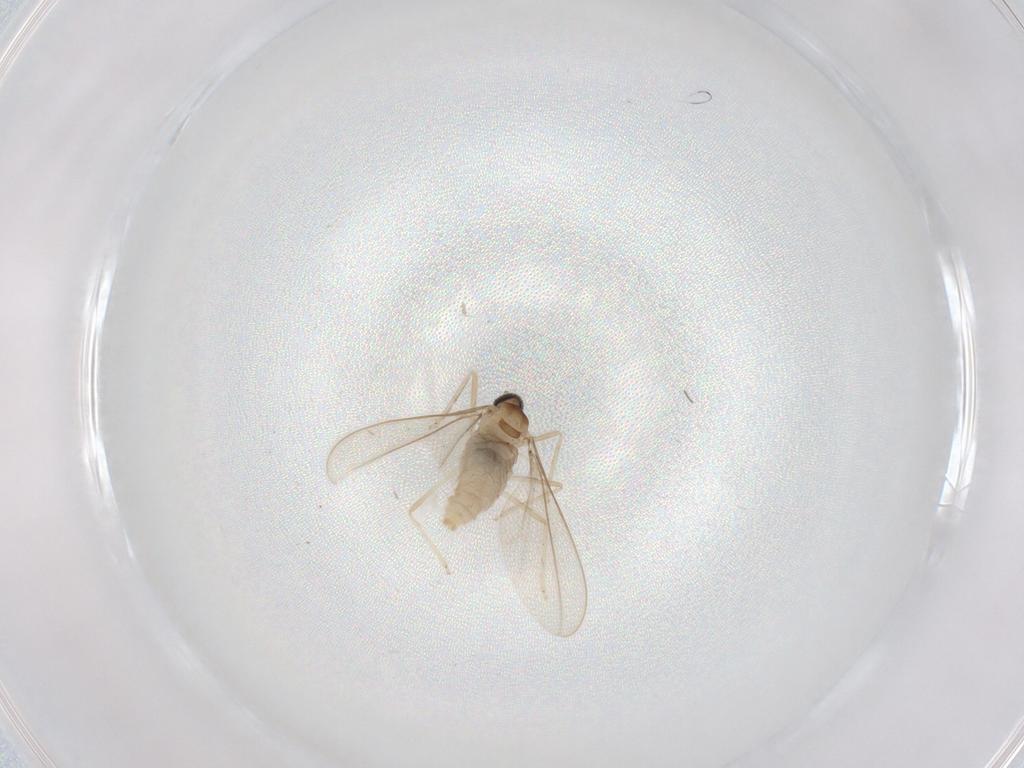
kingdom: Animalia
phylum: Arthropoda
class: Insecta
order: Diptera
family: Cecidomyiidae
